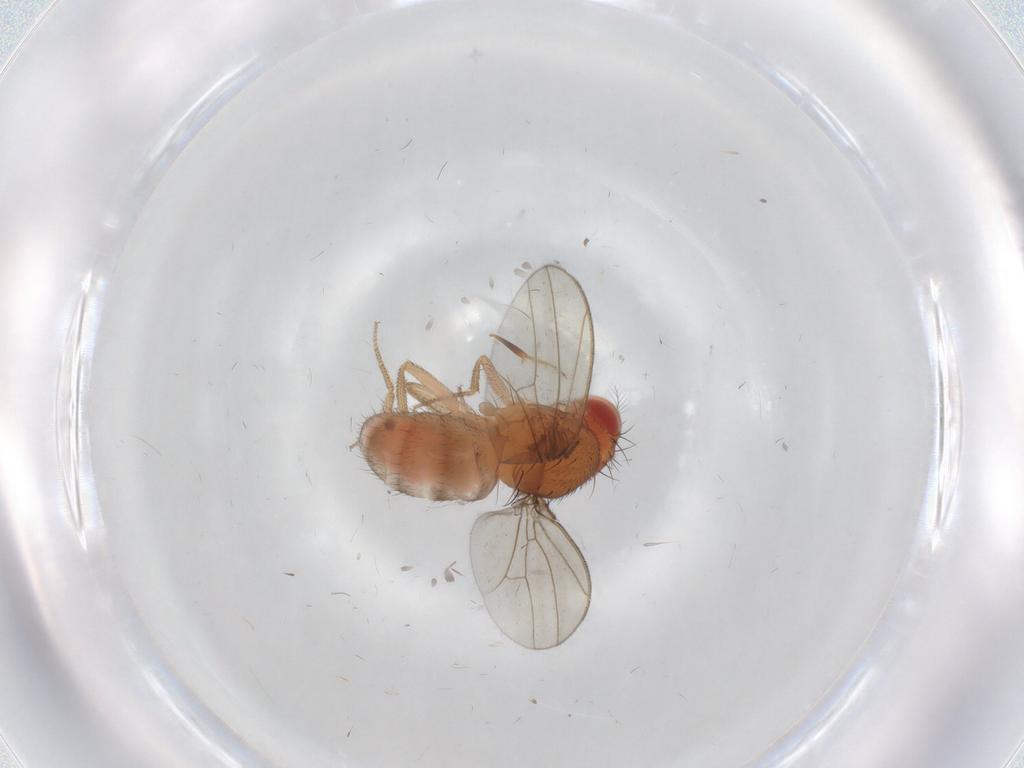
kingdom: Animalia
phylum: Arthropoda
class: Insecta
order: Diptera
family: Drosophilidae
